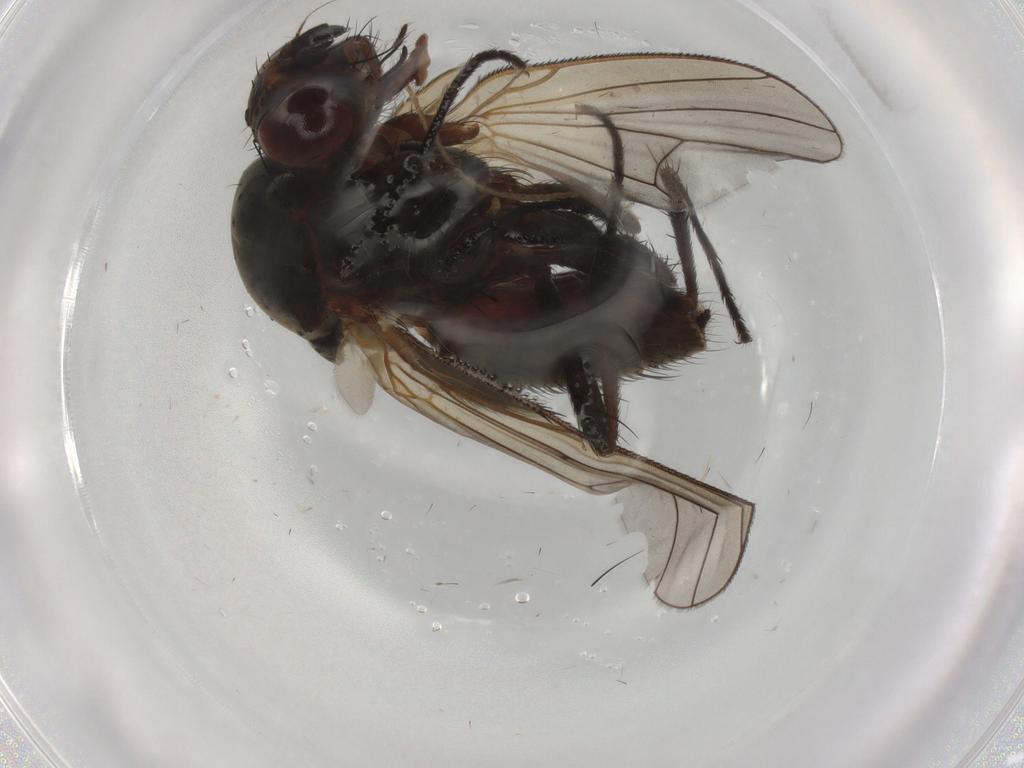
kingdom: Animalia
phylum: Arthropoda
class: Insecta
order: Diptera
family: Anthomyiidae
